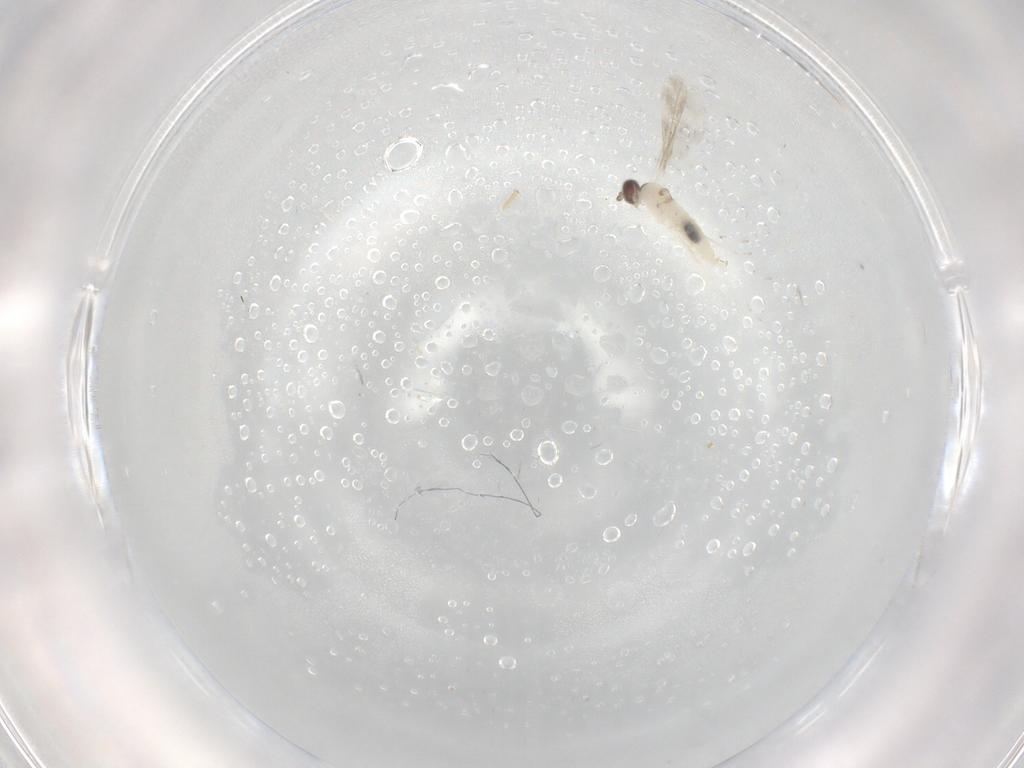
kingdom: Animalia
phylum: Arthropoda
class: Insecta
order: Diptera
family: Cecidomyiidae
